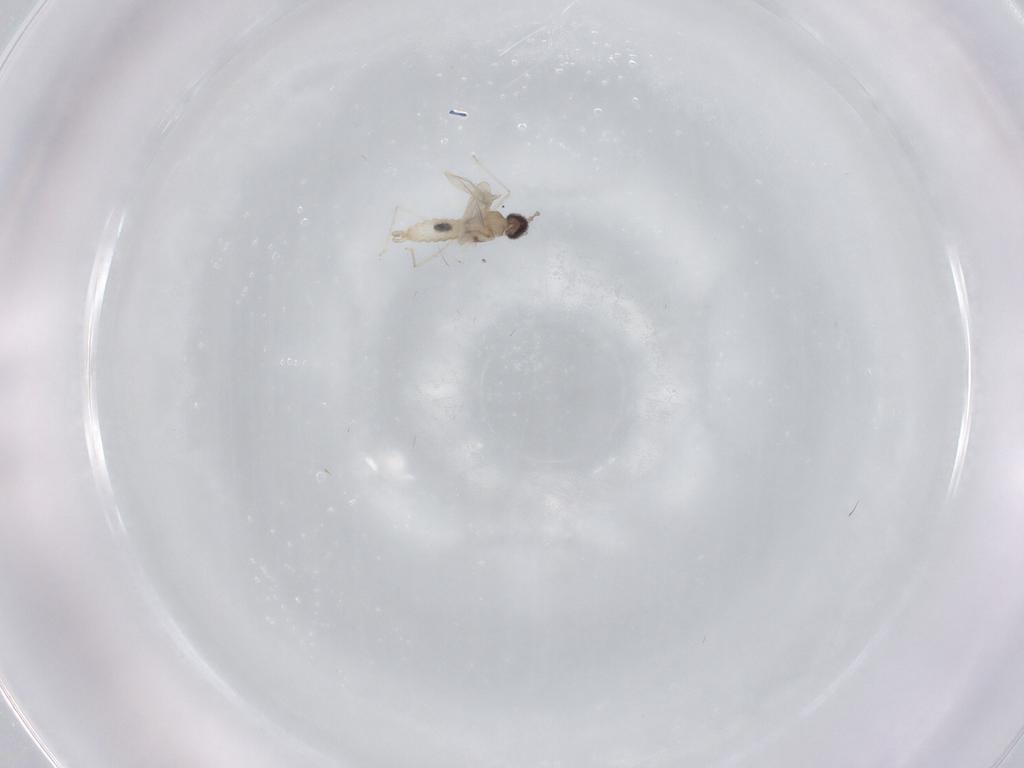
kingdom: Animalia
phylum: Arthropoda
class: Insecta
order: Diptera
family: Cecidomyiidae
